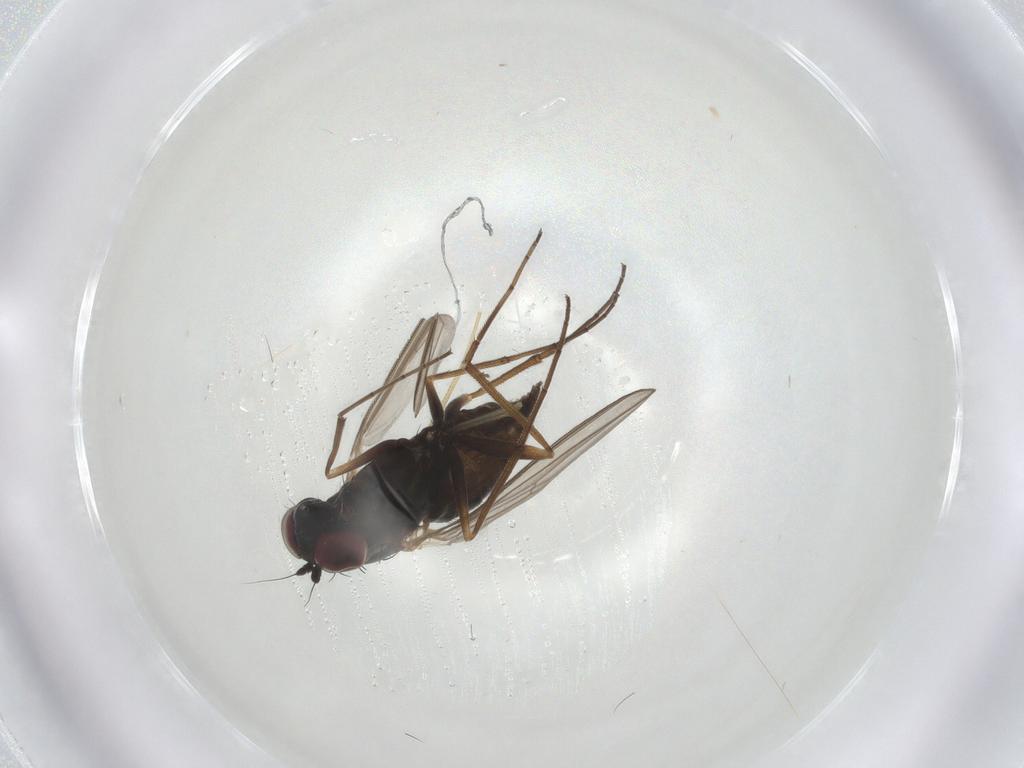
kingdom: Animalia
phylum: Arthropoda
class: Insecta
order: Diptera
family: Dolichopodidae
